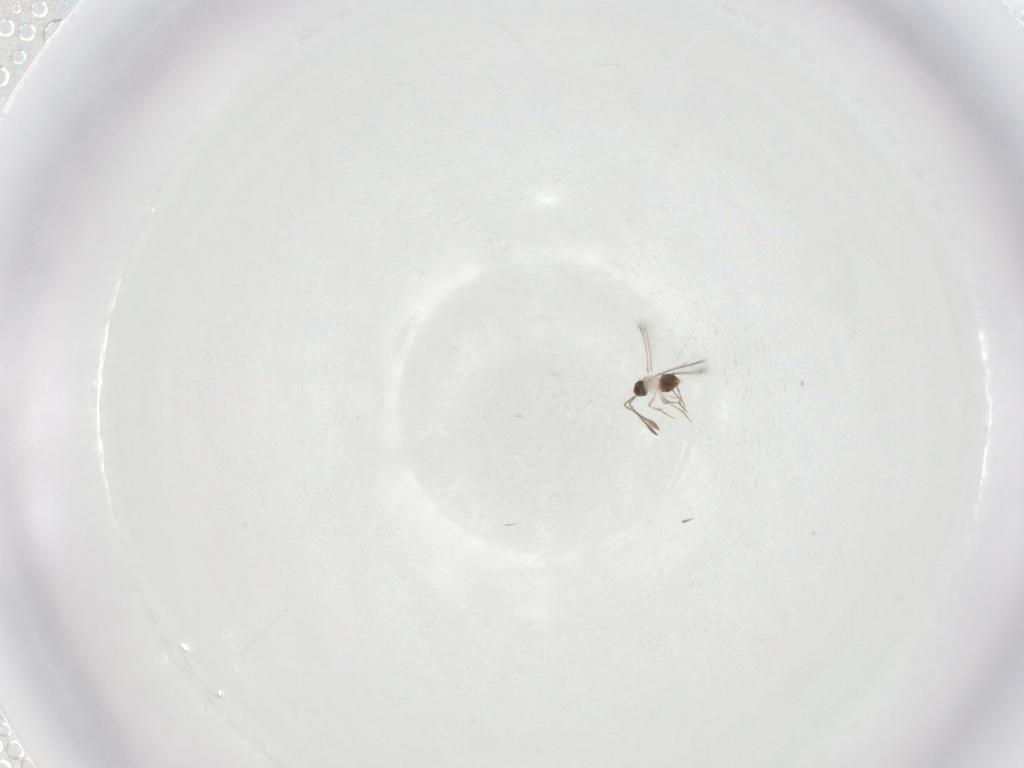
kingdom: Animalia
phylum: Arthropoda
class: Insecta
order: Hymenoptera
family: Mymaridae
